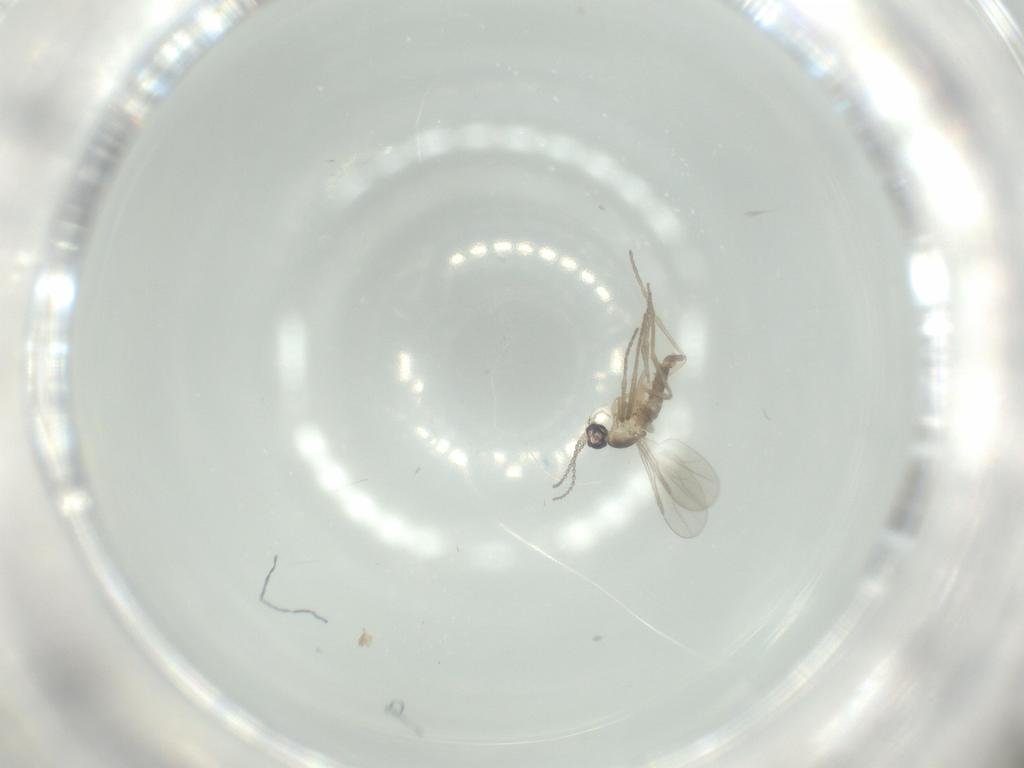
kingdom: Animalia
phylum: Arthropoda
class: Insecta
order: Diptera
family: Cecidomyiidae
